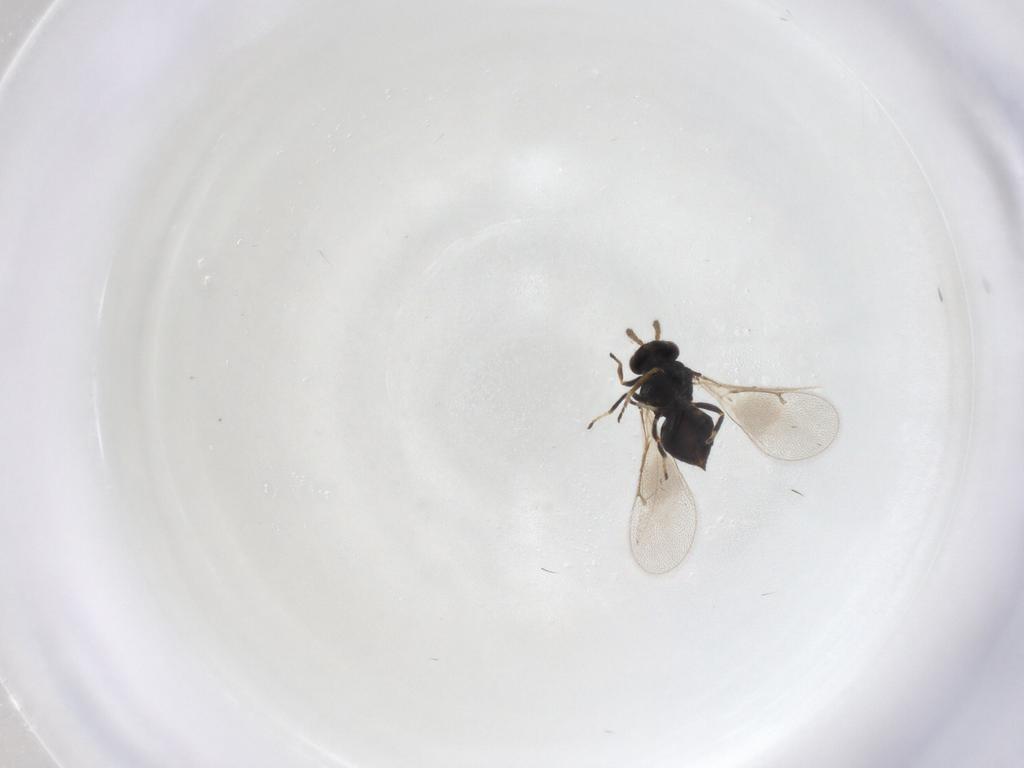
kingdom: Animalia
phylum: Arthropoda
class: Insecta
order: Hymenoptera
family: Eulophidae
